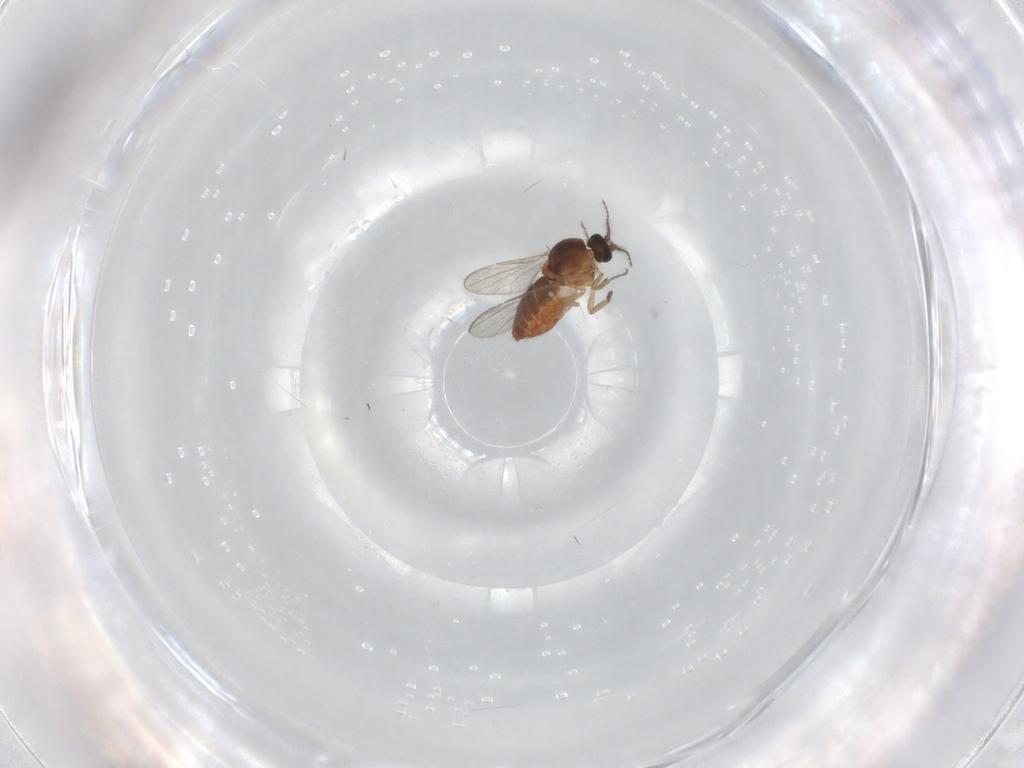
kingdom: Animalia
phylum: Arthropoda
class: Insecta
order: Diptera
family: Ceratopogonidae
